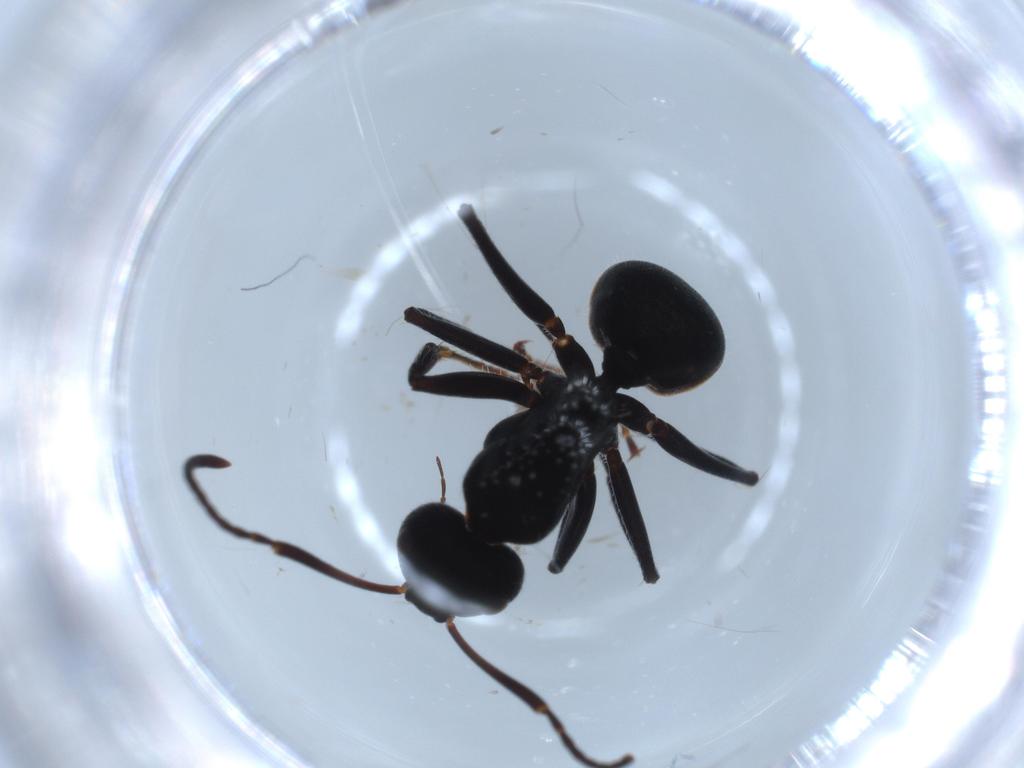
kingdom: Animalia
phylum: Arthropoda
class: Insecta
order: Hymenoptera
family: Formicidae
